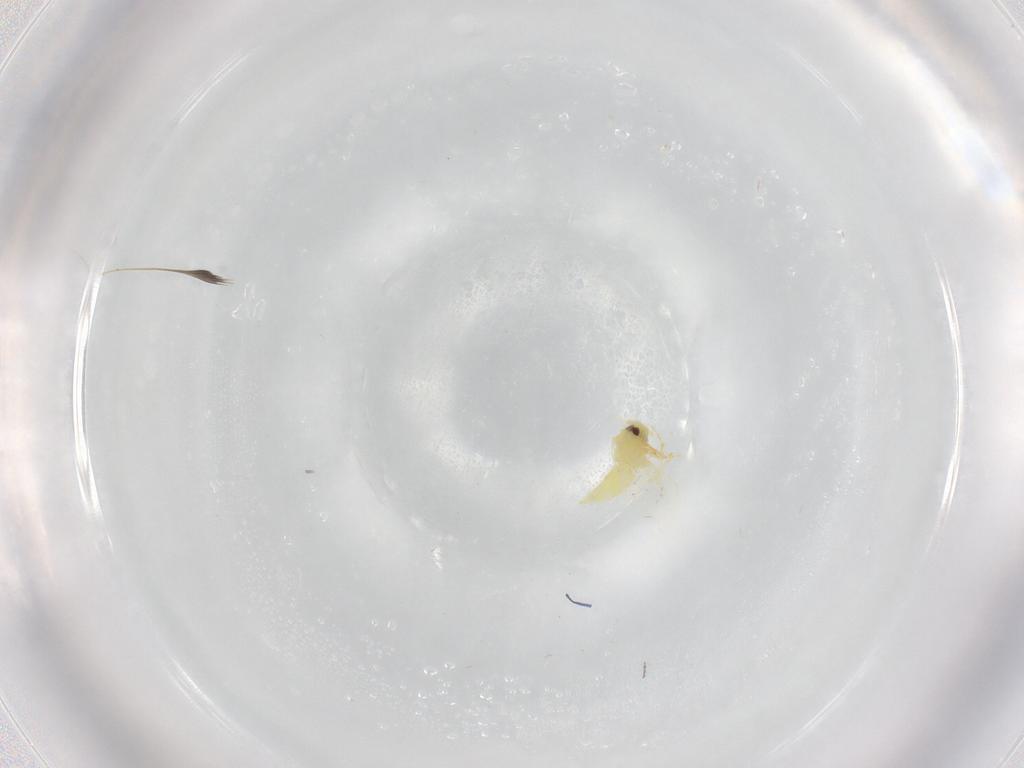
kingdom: Animalia
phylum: Arthropoda
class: Insecta
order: Hemiptera
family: Aleyrodidae
